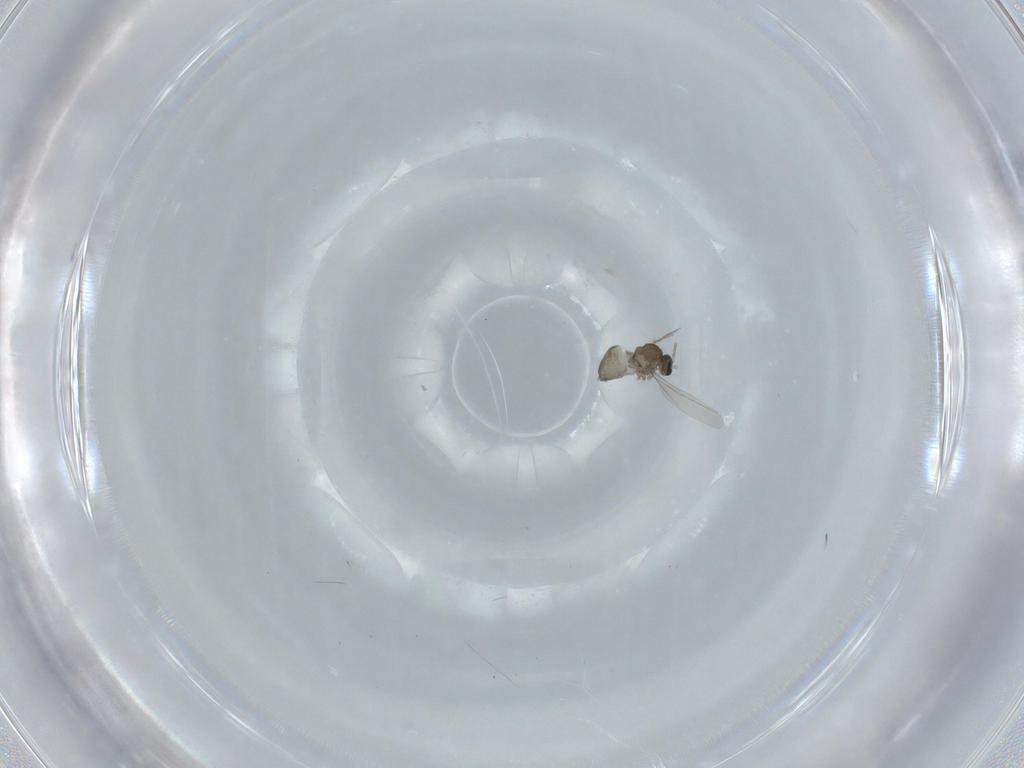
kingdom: Animalia
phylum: Arthropoda
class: Insecta
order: Diptera
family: Cecidomyiidae
